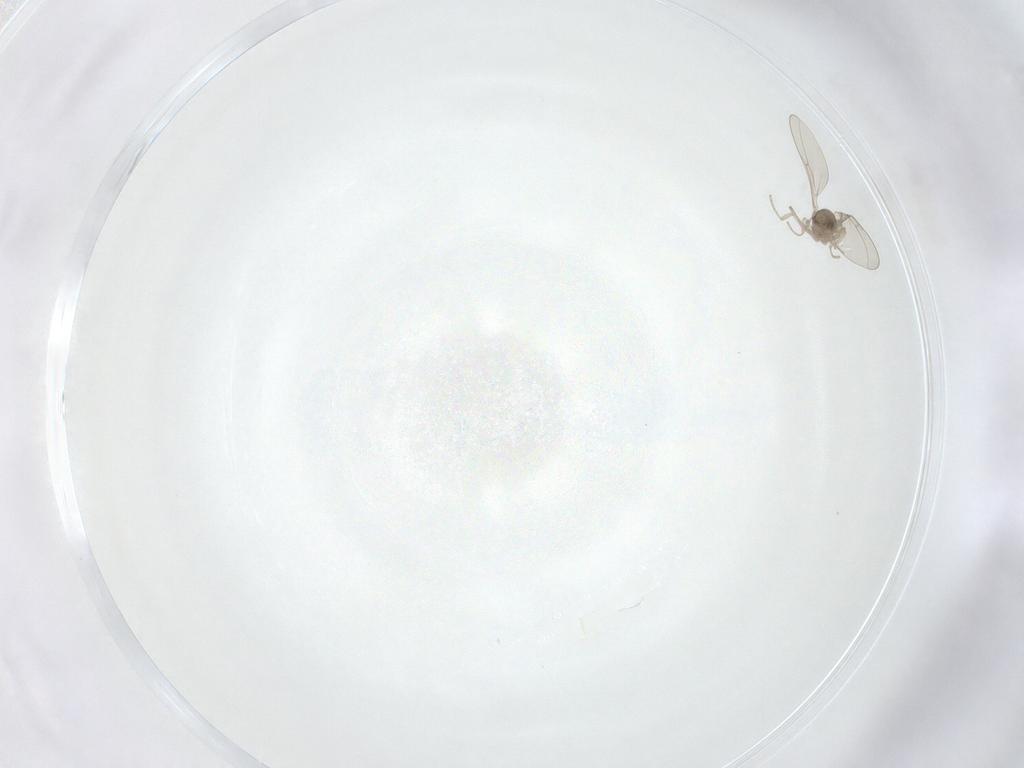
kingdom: Animalia
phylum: Arthropoda
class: Insecta
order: Diptera
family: Cecidomyiidae
